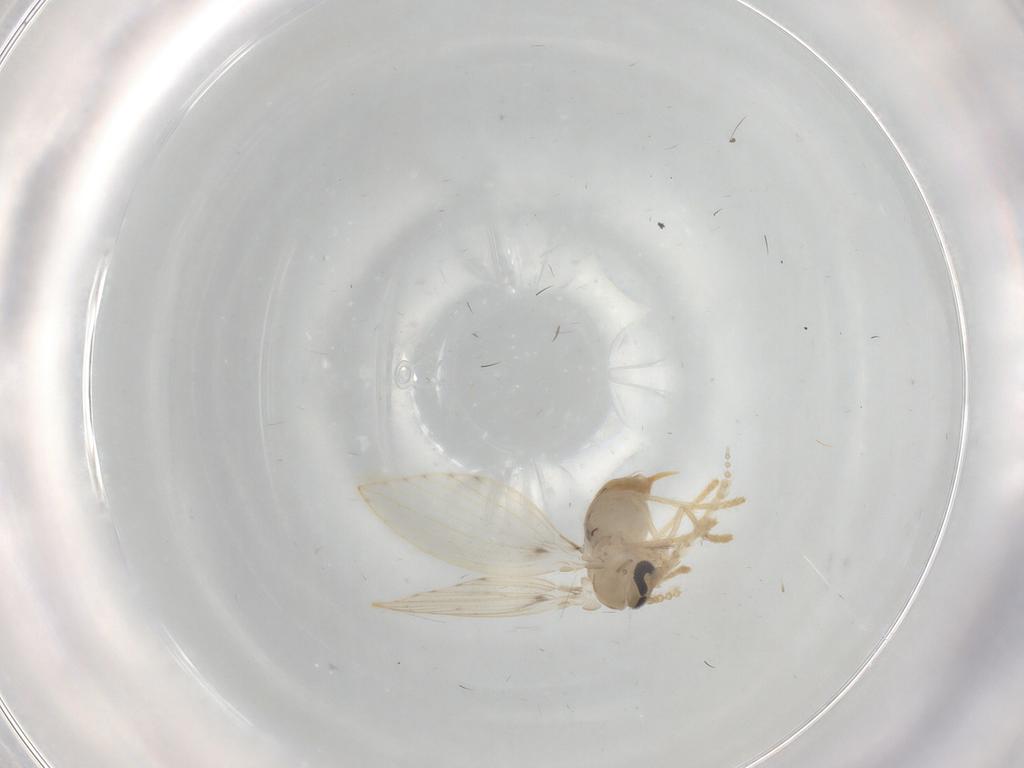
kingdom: Animalia
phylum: Arthropoda
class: Insecta
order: Diptera
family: Psychodidae
